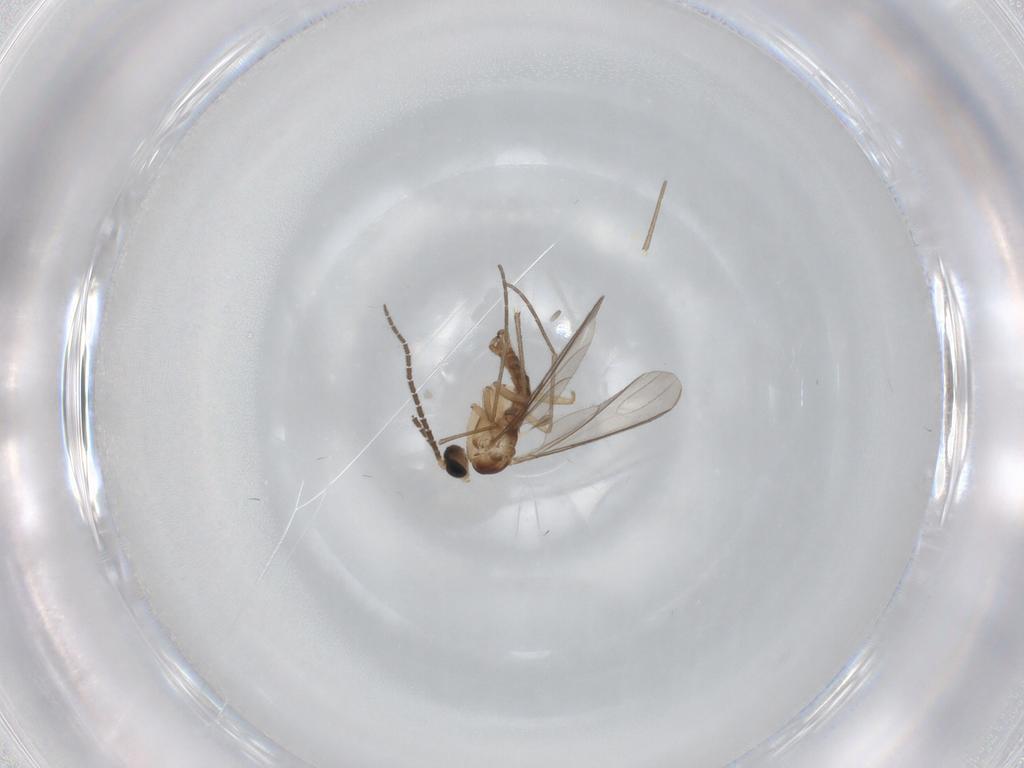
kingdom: Animalia
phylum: Arthropoda
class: Insecta
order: Diptera
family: Sciaridae
